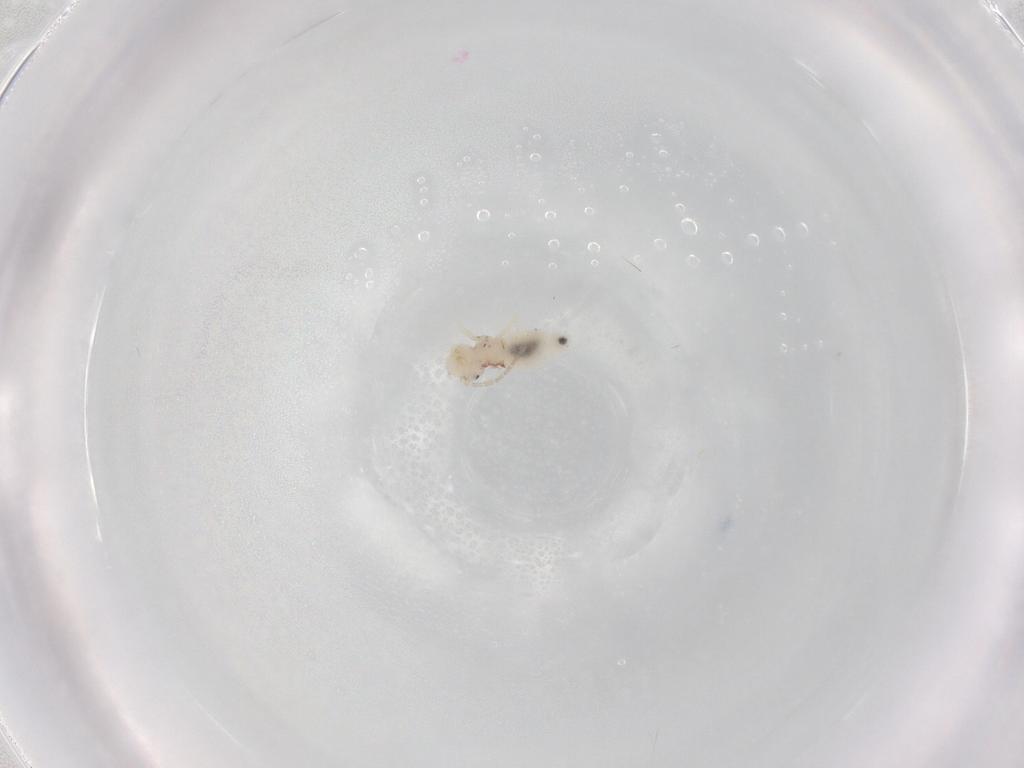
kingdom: Animalia
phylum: Arthropoda
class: Insecta
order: Psocodea
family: Amphipsocidae
